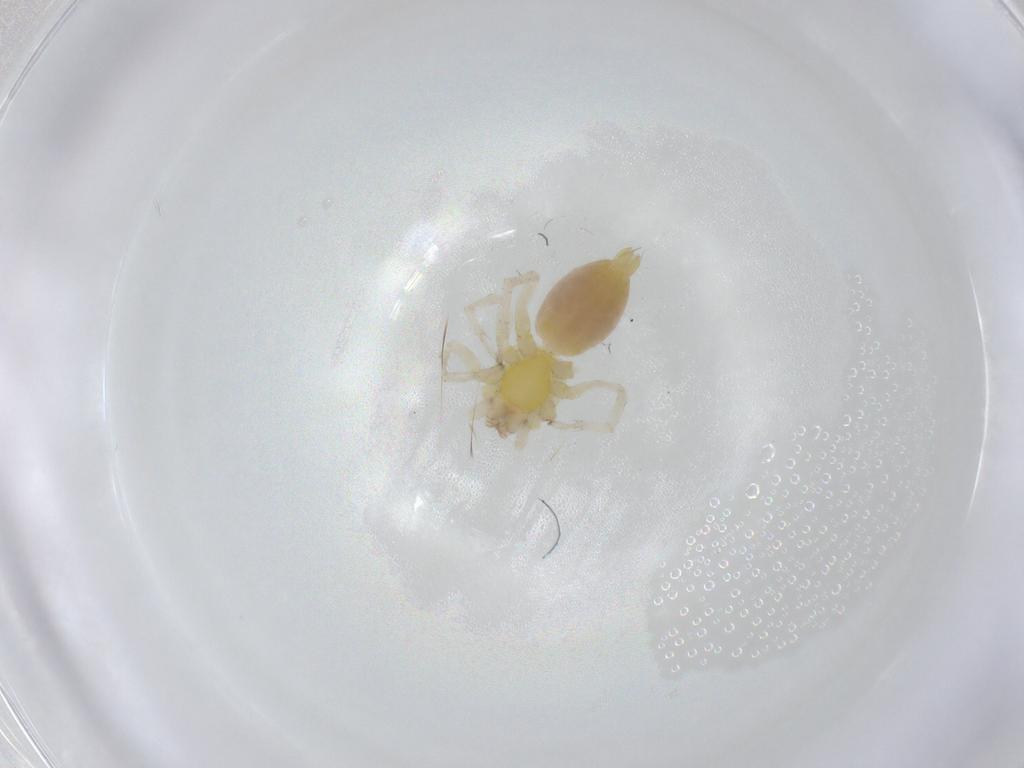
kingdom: Animalia
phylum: Arthropoda
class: Arachnida
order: Araneae
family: Clubionidae
